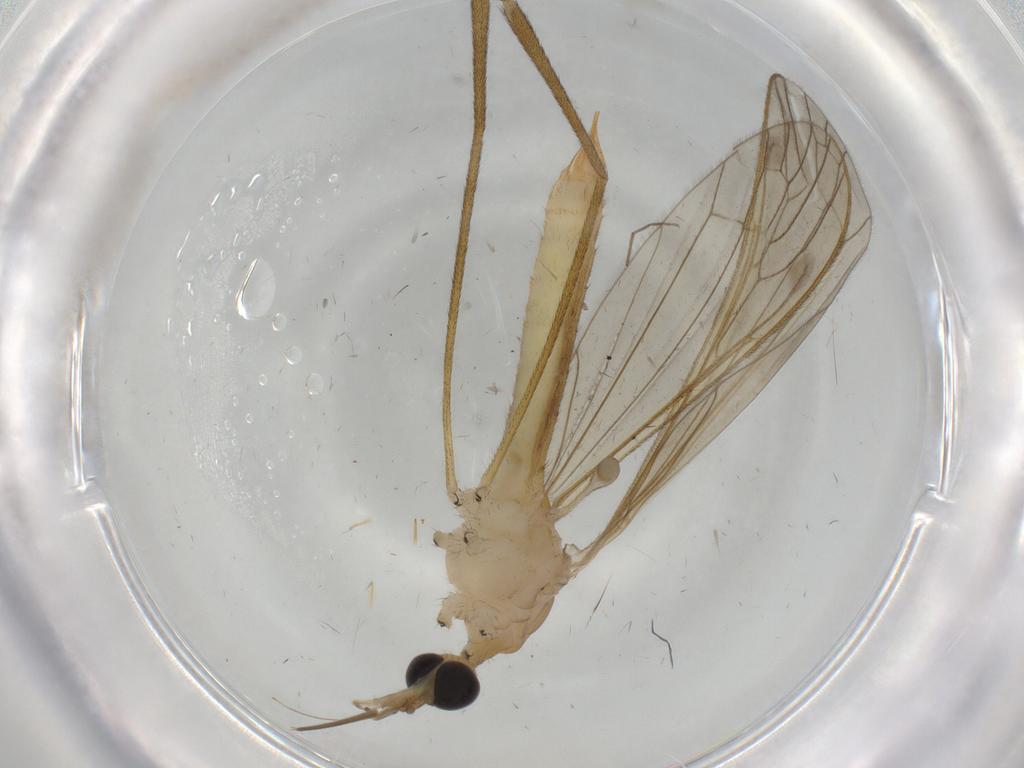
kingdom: Animalia
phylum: Arthropoda
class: Insecta
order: Diptera
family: Limoniidae
